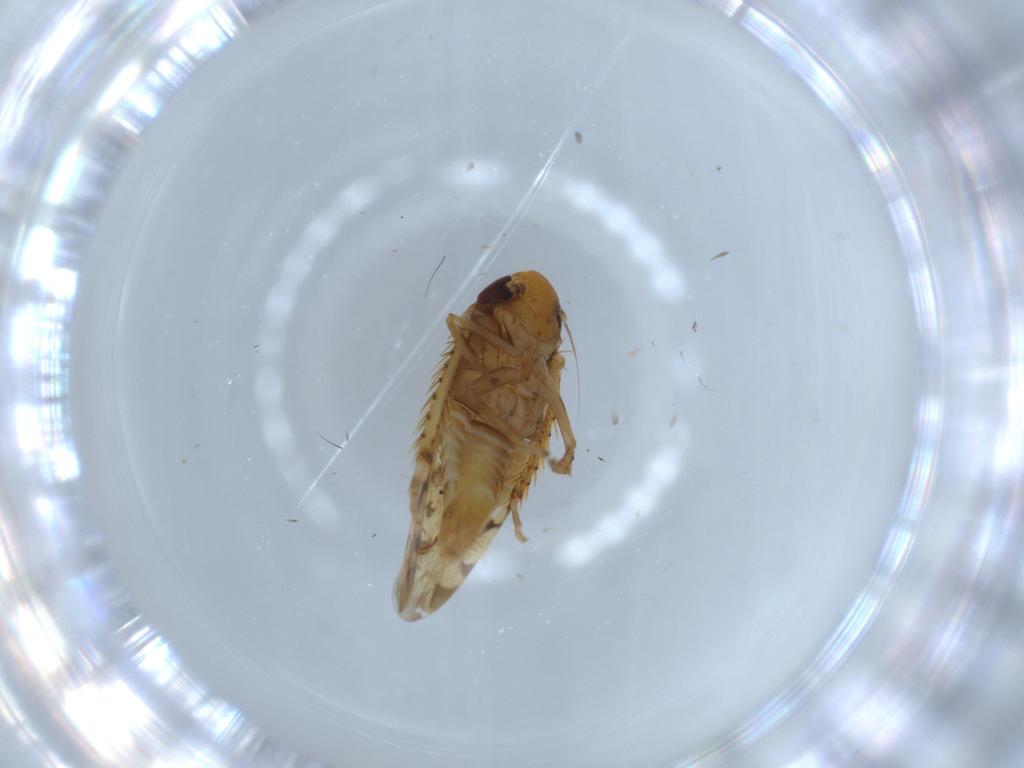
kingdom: Animalia
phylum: Arthropoda
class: Insecta
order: Hemiptera
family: Cicadellidae
